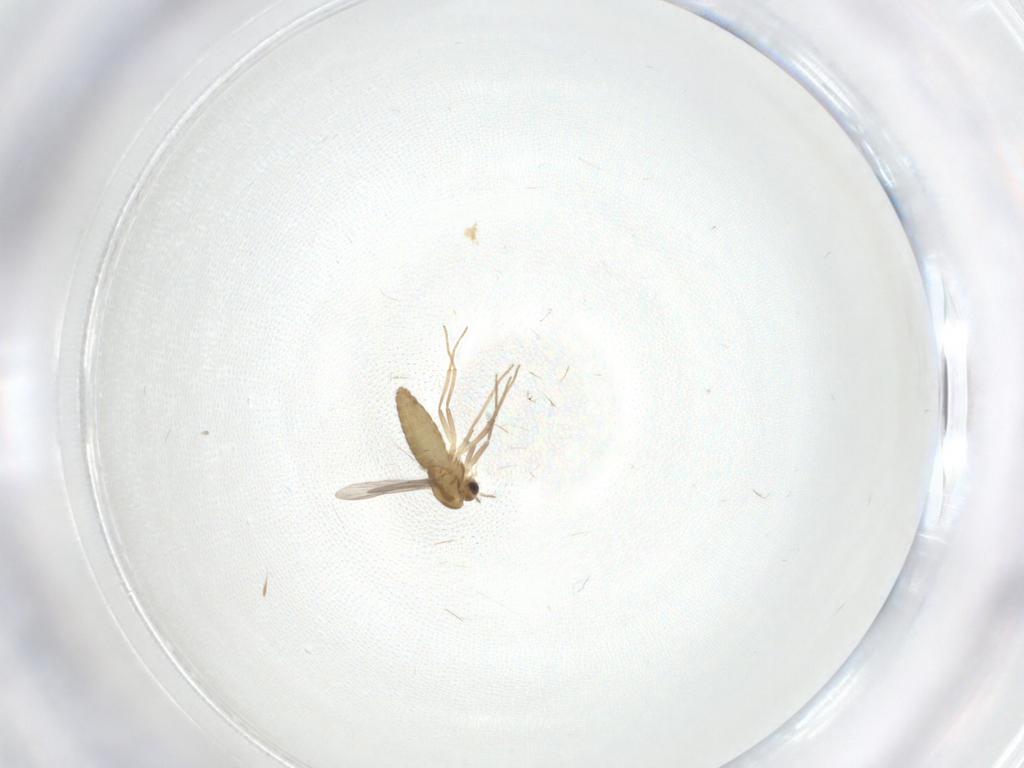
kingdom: Animalia
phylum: Arthropoda
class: Insecta
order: Diptera
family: Chironomidae
